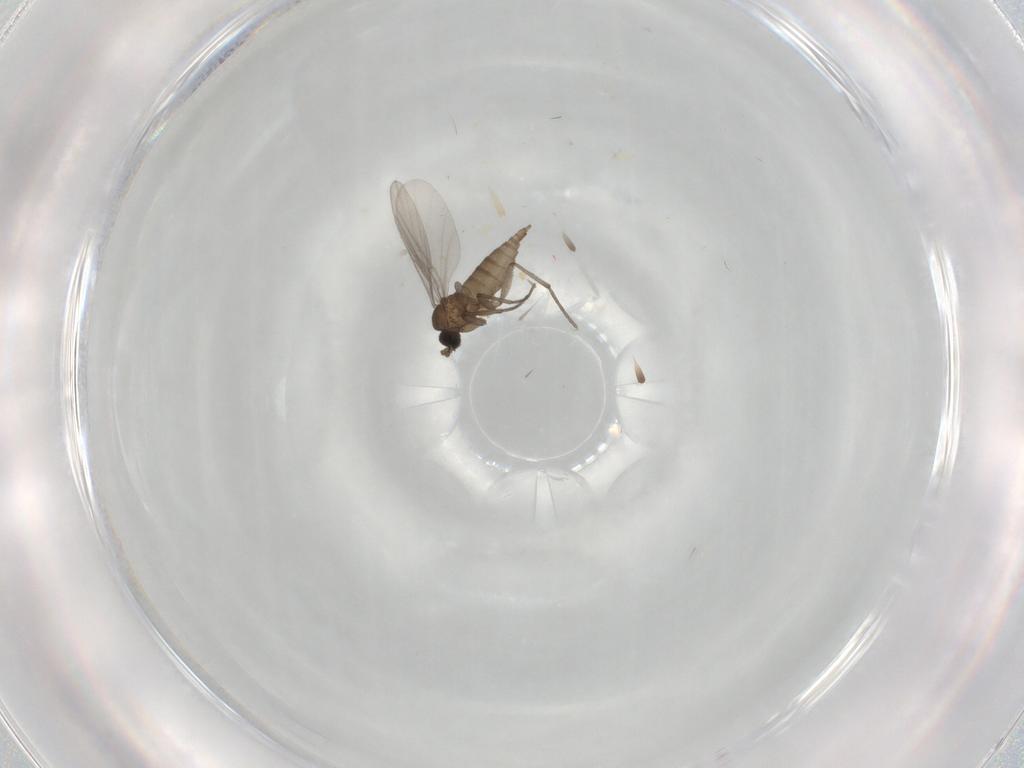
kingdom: Animalia
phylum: Arthropoda
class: Insecta
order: Diptera
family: Sciaridae
